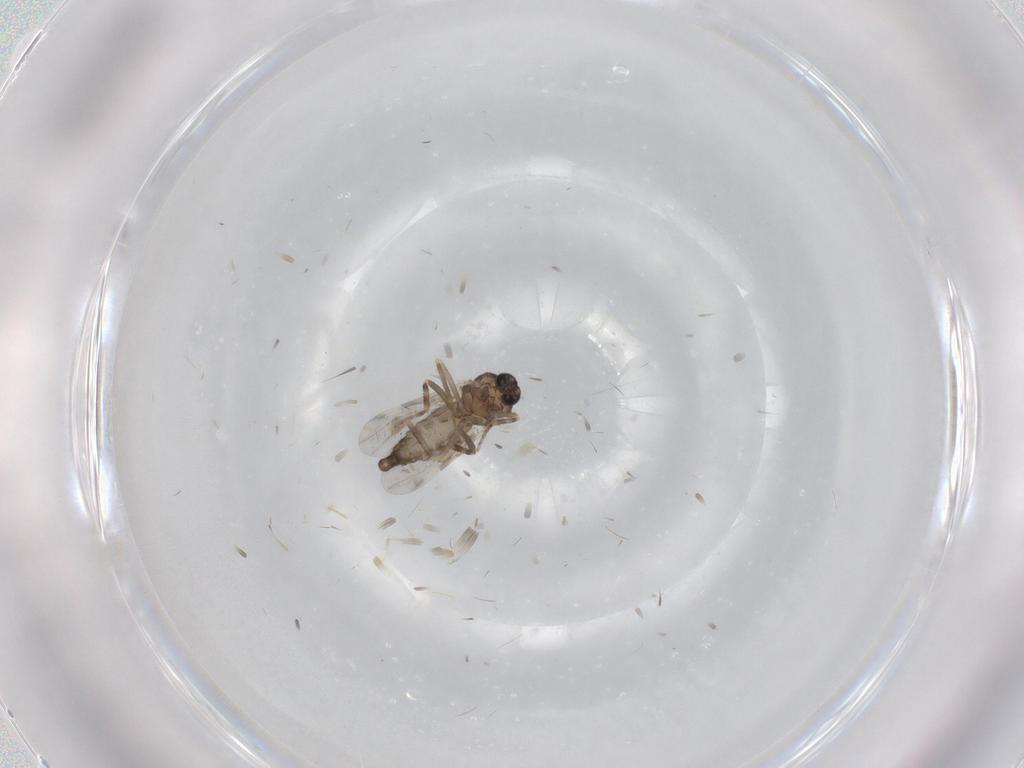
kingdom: Animalia
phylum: Arthropoda
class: Insecta
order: Diptera
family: Ceratopogonidae
